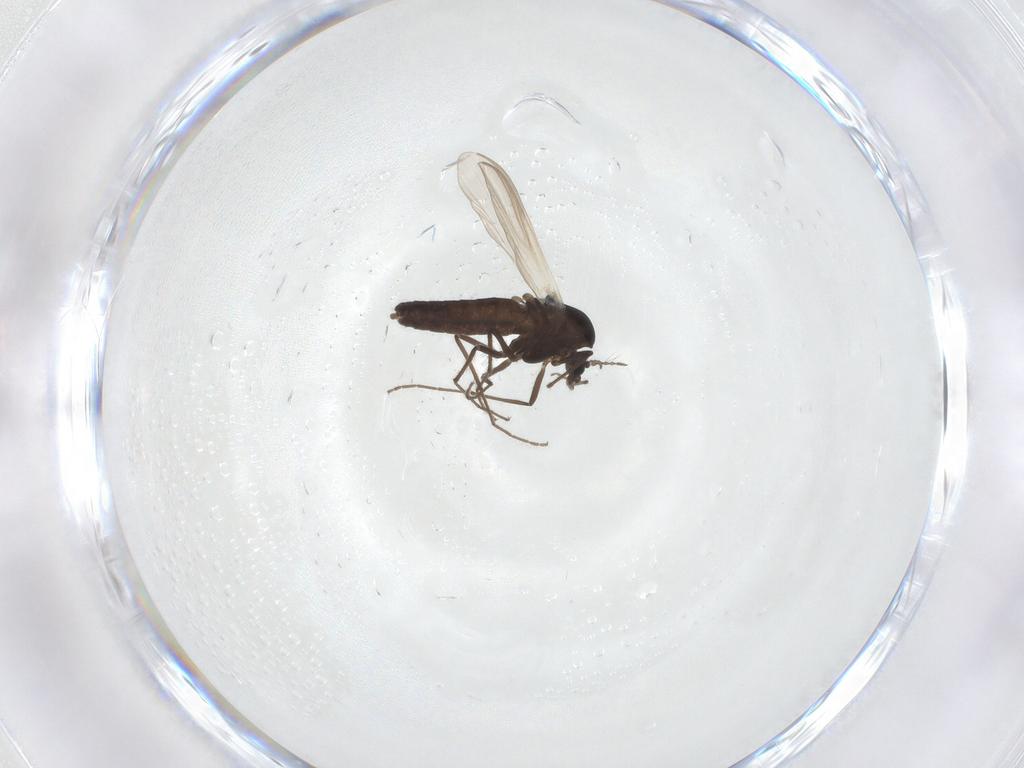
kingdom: Animalia
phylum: Arthropoda
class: Insecta
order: Diptera
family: Chironomidae
